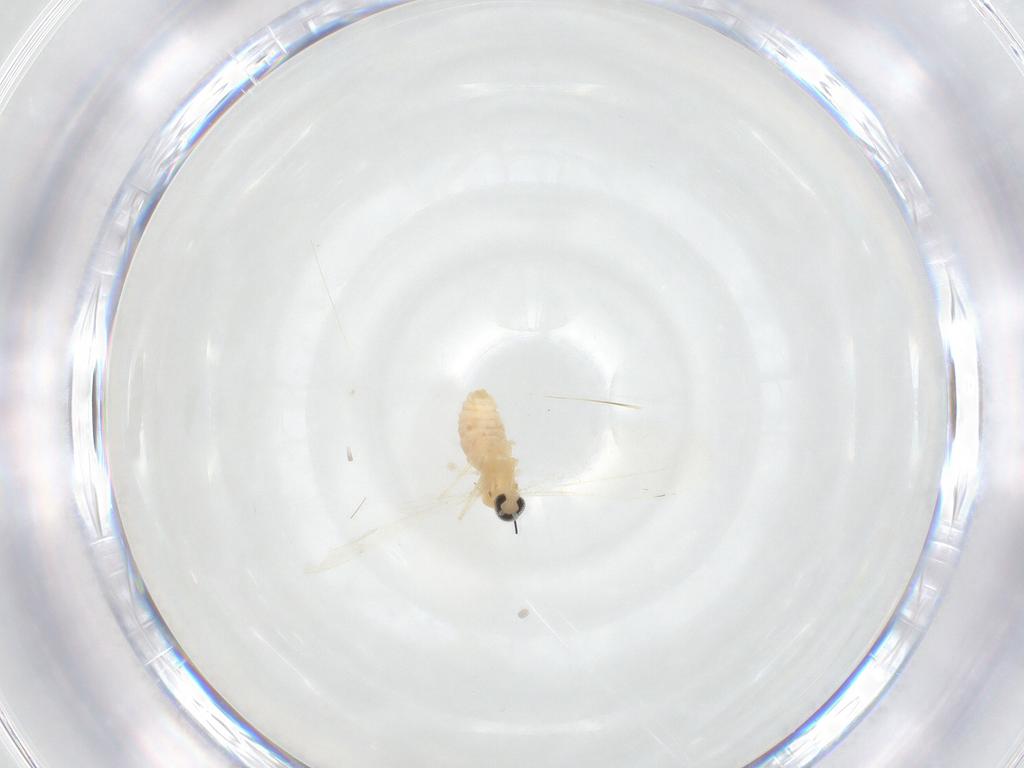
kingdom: Animalia
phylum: Arthropoda
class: Insecta
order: Diptera
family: Cecidomyiidae
